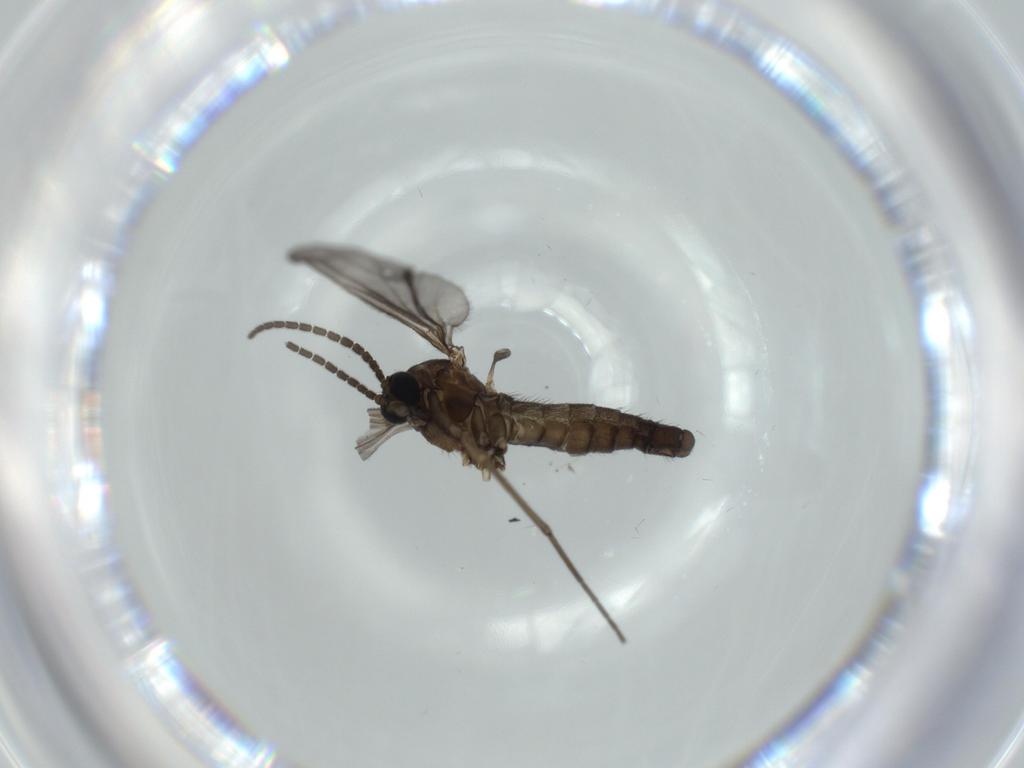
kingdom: Animalia
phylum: Arthropoda
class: Insecta
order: Diptera
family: Sciaridae
